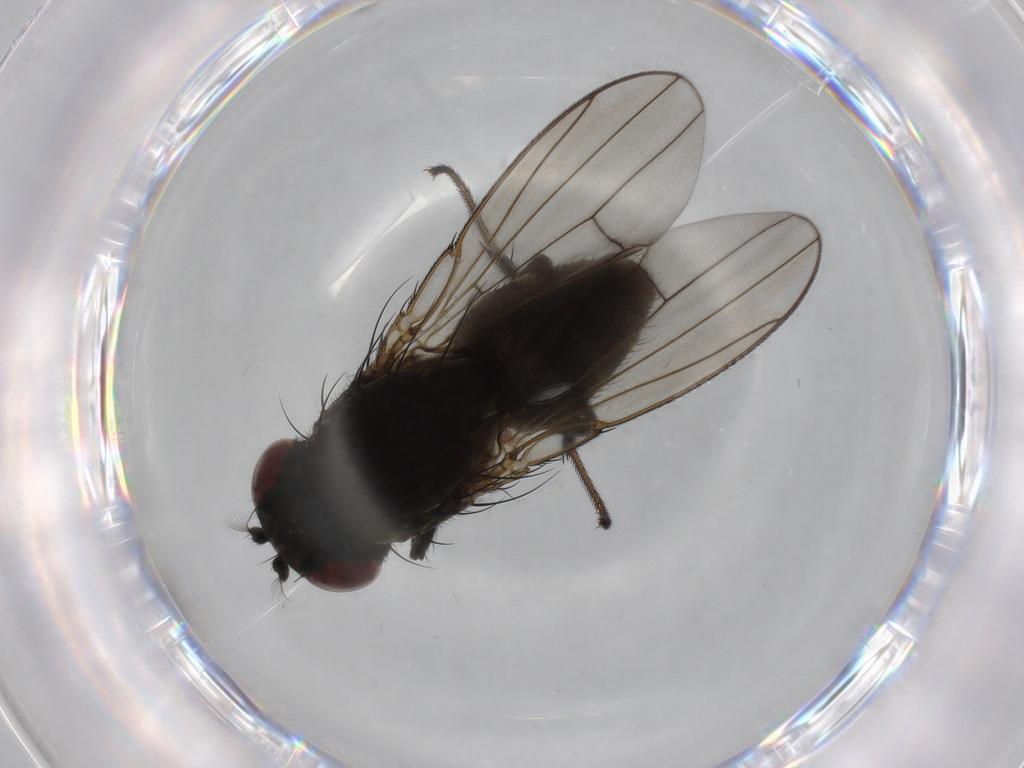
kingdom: Animalia
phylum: Arthropoda
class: Insecta
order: Diptera
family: Ephydridae
